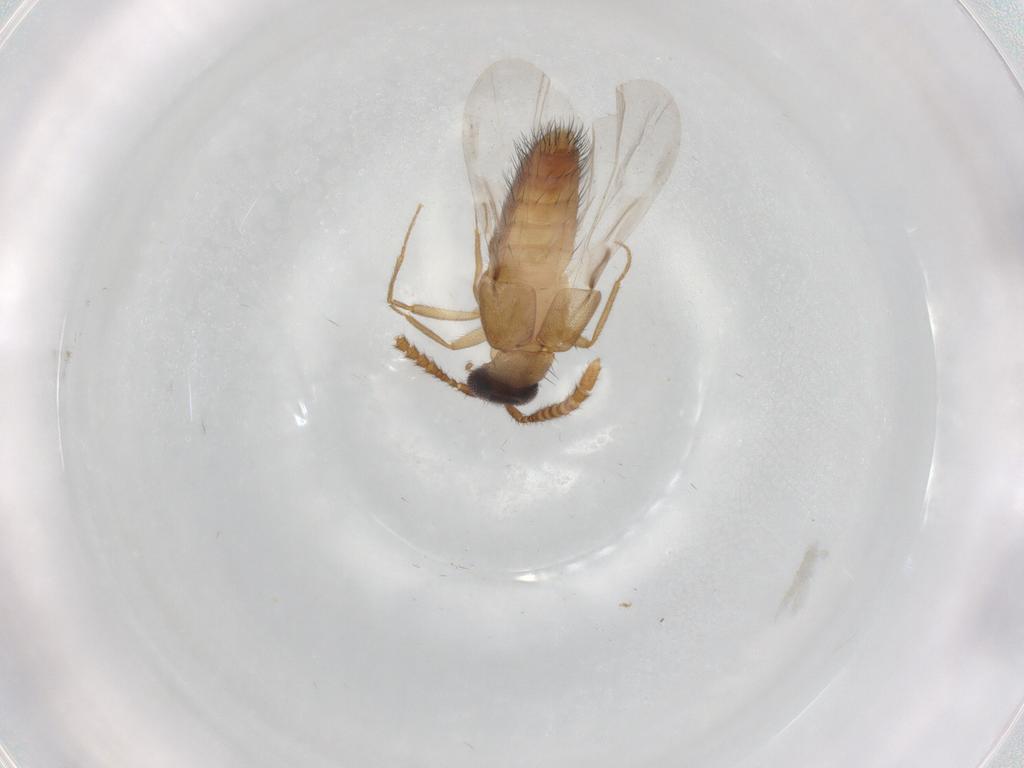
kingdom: Animalia
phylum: Arthropoda
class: Insecta
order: Coleoptera
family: Staphylinidae
